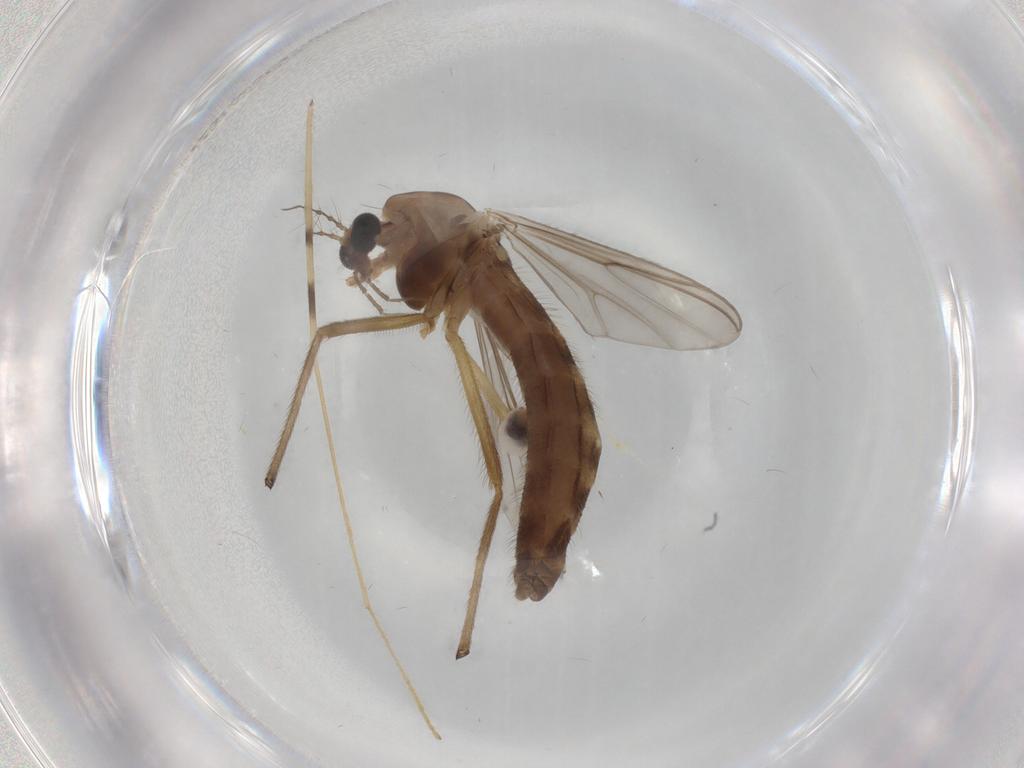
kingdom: Animalia
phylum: Arthropoda
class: Insecta
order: Diptera
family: Chironomidae
